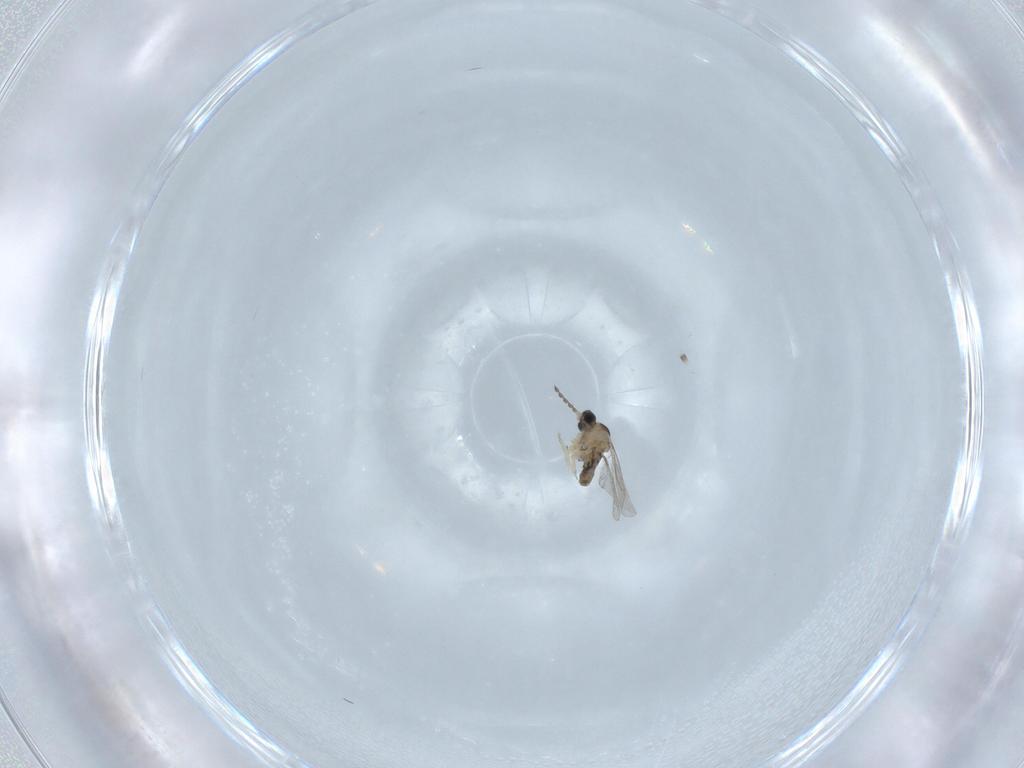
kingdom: Animalia
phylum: Arthropoda
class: Insecta
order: Diptera
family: Cecidomyiidae
